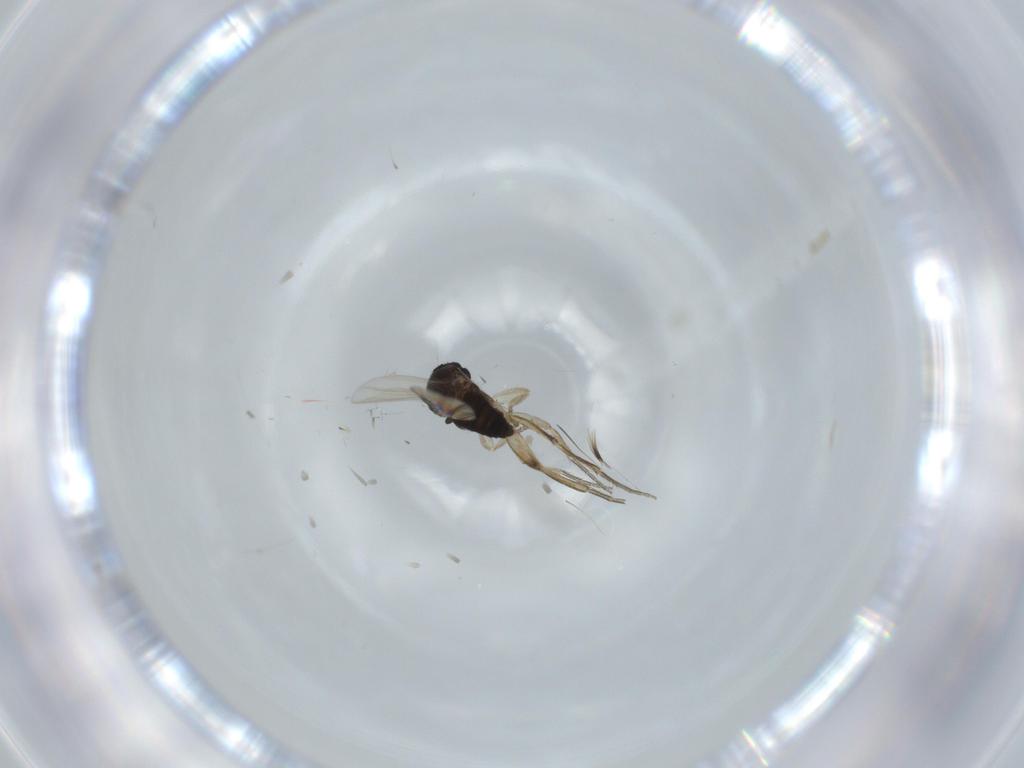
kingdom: Animalia
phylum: Arthropoda
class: Insecta
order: Diptera
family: Phoridae
